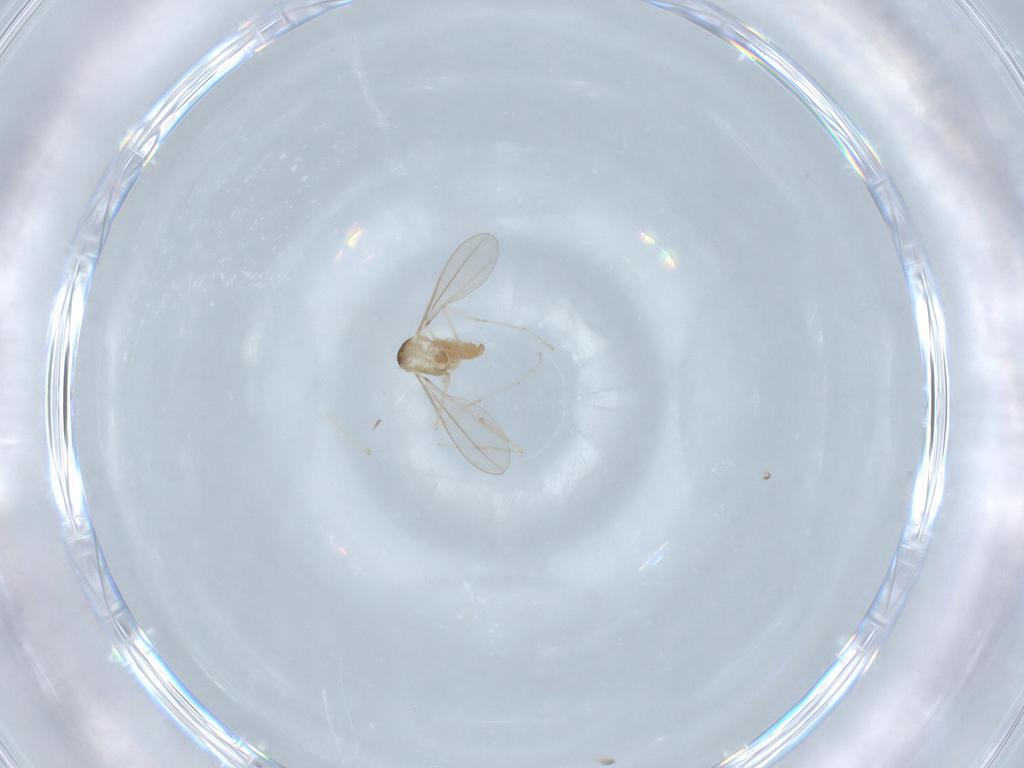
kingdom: Animalia
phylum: Arthropoda
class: Insecta
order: Diptera
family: Cecidomyiidae
